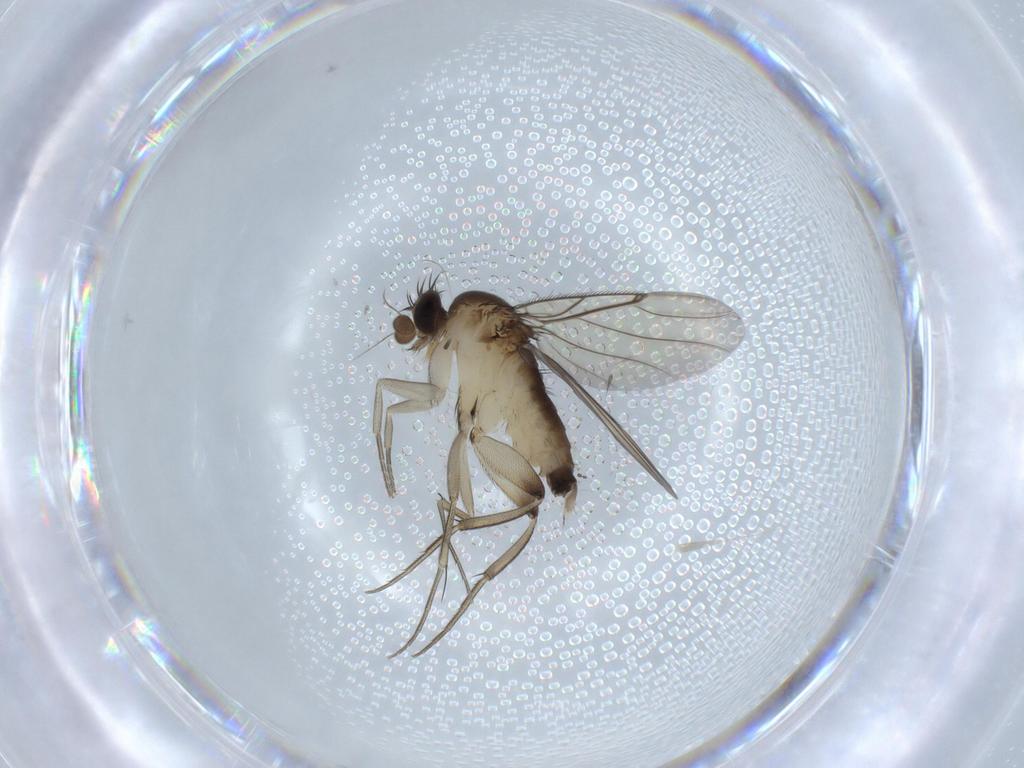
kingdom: Animalia
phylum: Arthropoda
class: Insecta
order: Diptera
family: Phoridae
